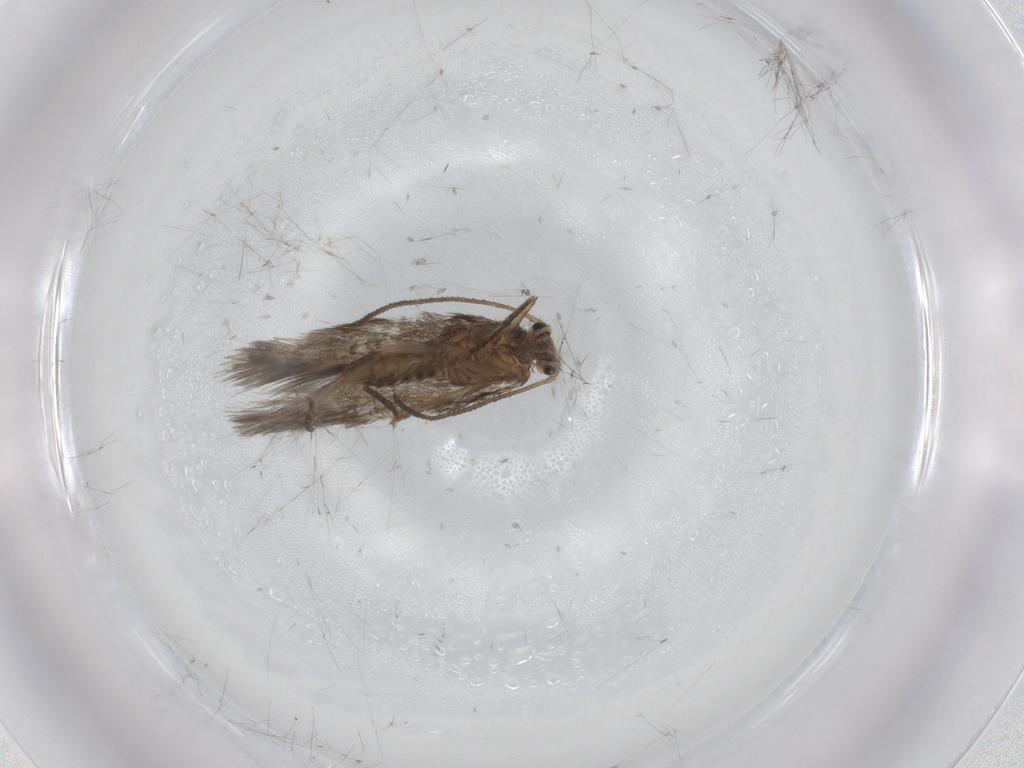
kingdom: Animalia
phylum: Arthropoda
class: Insecta
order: Lepidoptera
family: Nepticulidae
